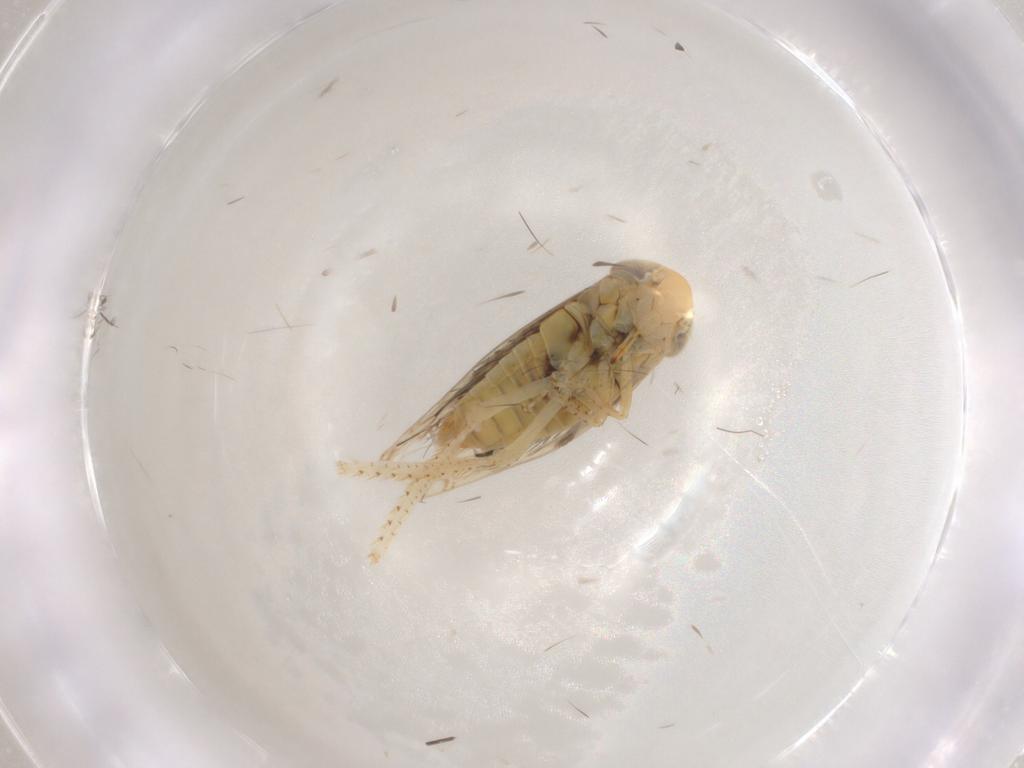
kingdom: Animalia
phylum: Arthropoda
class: Insecta
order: Hemiptera
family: Cicadellidae
